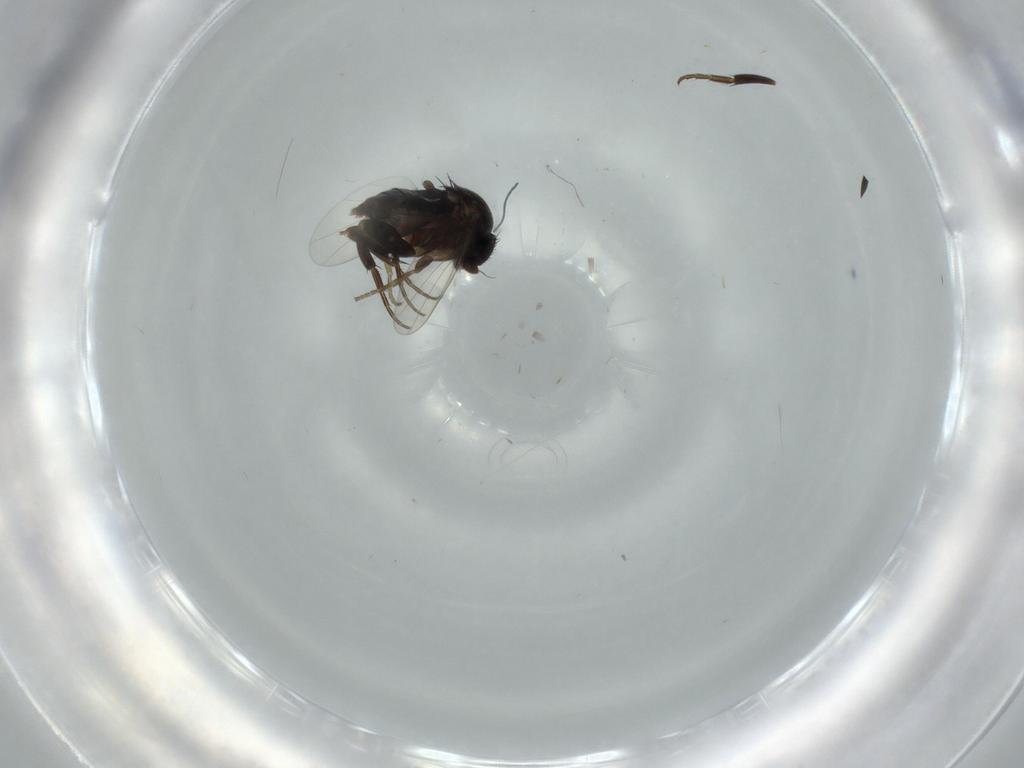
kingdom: Animalia
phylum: Arthropoda
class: Insecta
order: Diptera
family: Phoridae
